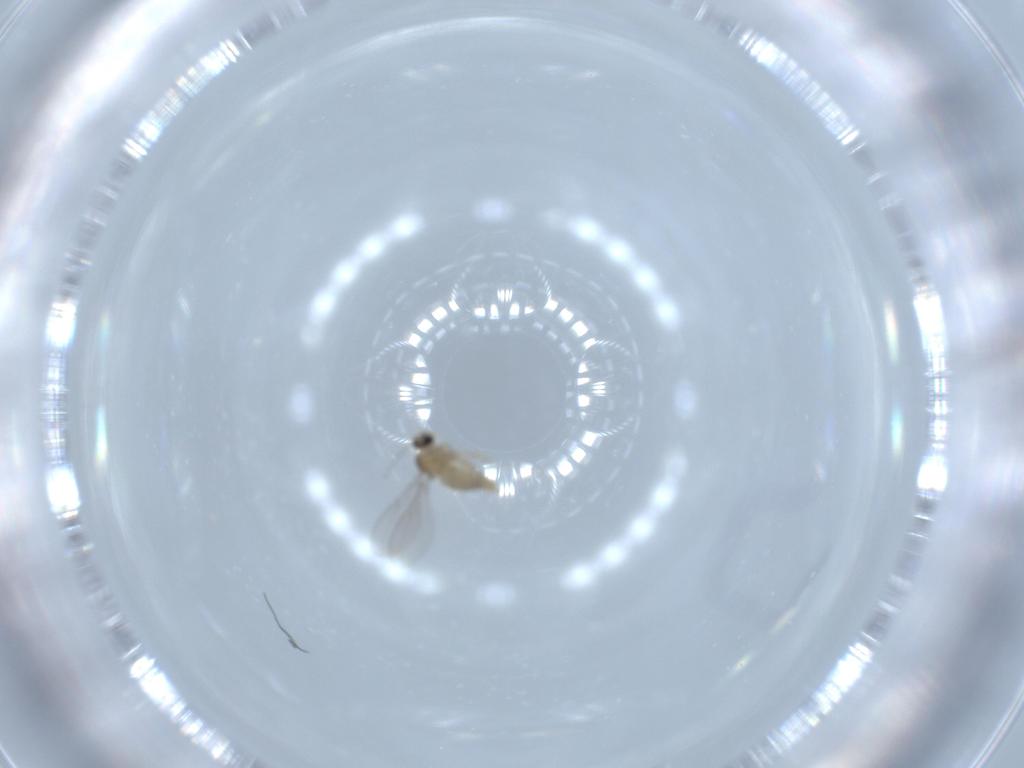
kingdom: Animalia
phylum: Arthropoda
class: Insecta
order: Diptera
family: Cecidomyiidae
